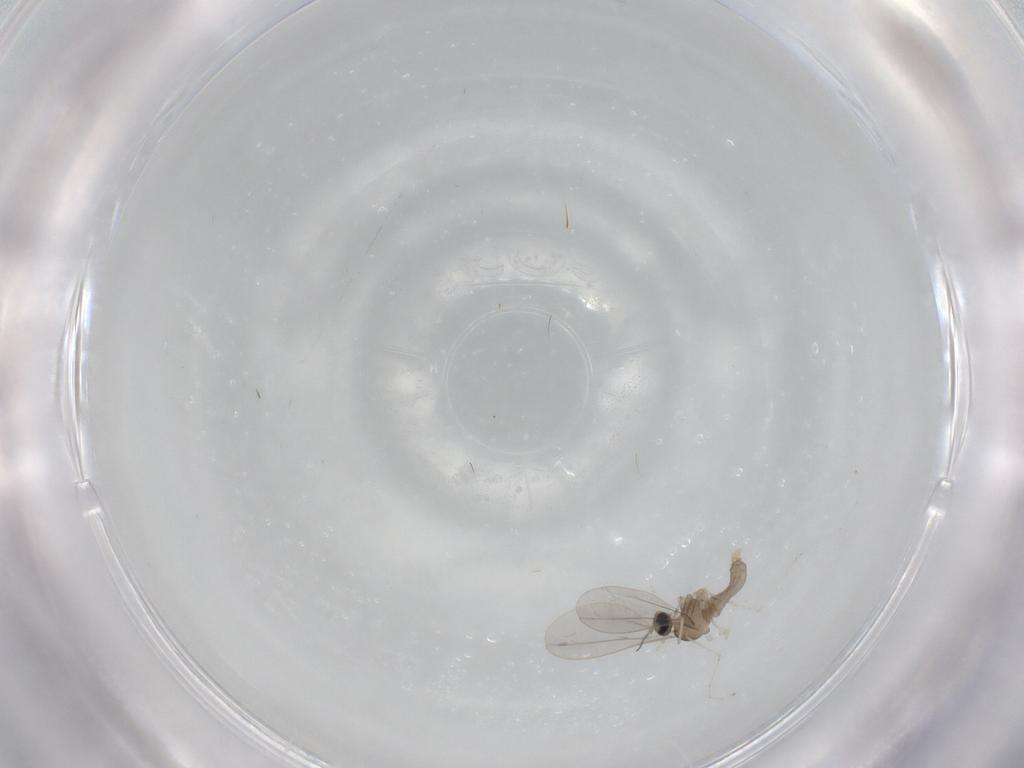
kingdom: Animalia
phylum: Arthropoda
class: Insecta
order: Diptera
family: Cecidomyiidae
